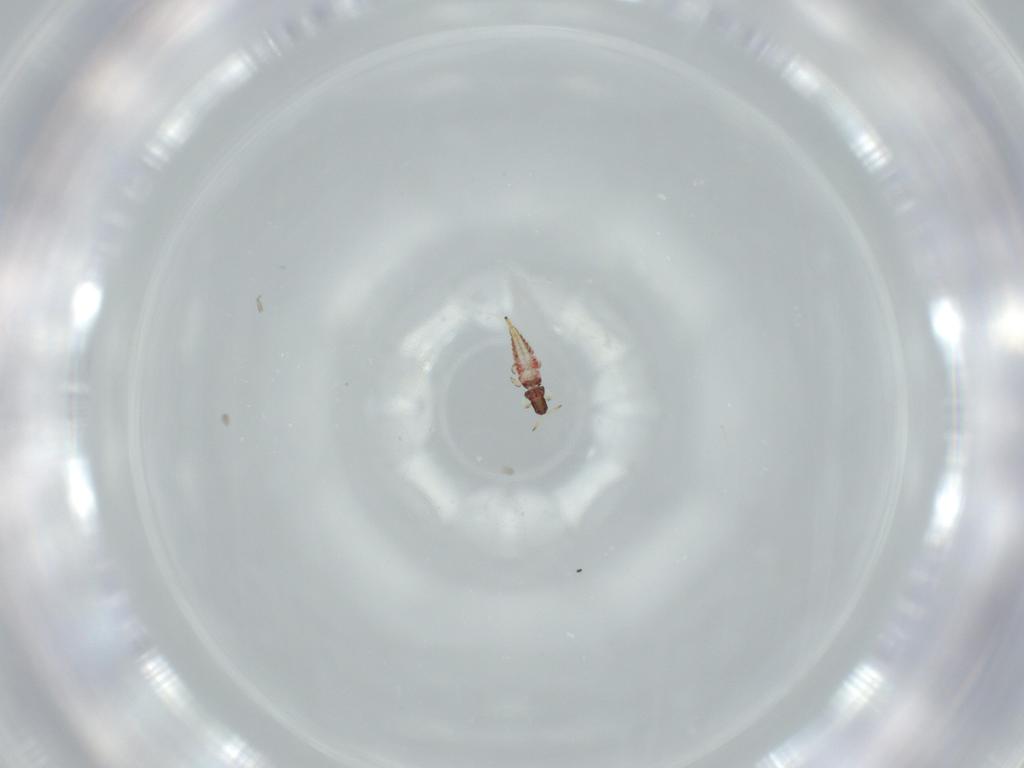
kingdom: Animalia
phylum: Arthropoda
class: Insecta
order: Thysanoptera
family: Phlaeothripidae
